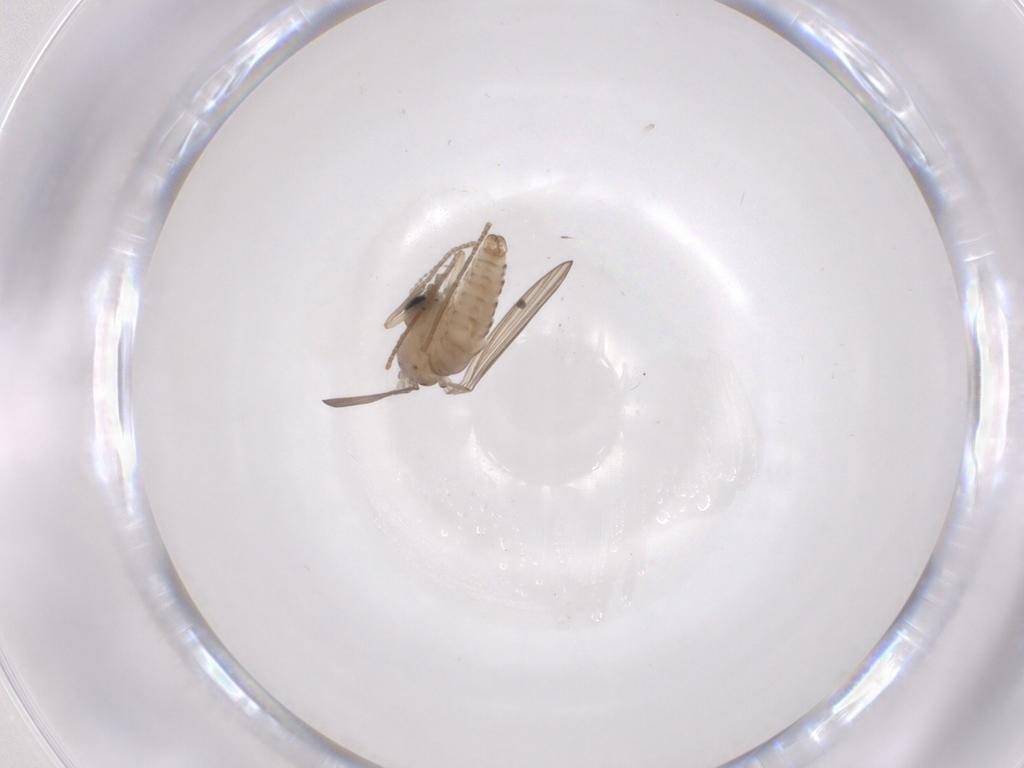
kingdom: Animalia
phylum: Arthropoda
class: Insecta
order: Diptera
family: Psychodidae
